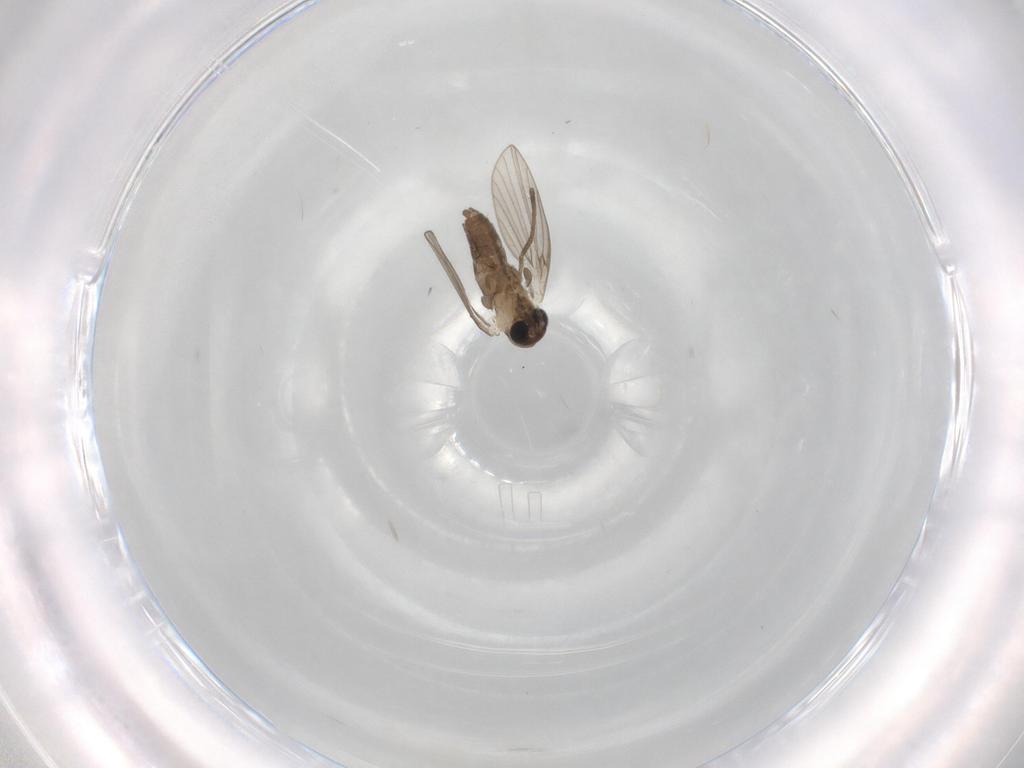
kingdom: Animalia
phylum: Arthropoda
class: Insecta
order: Diptera
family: Psychodidae
